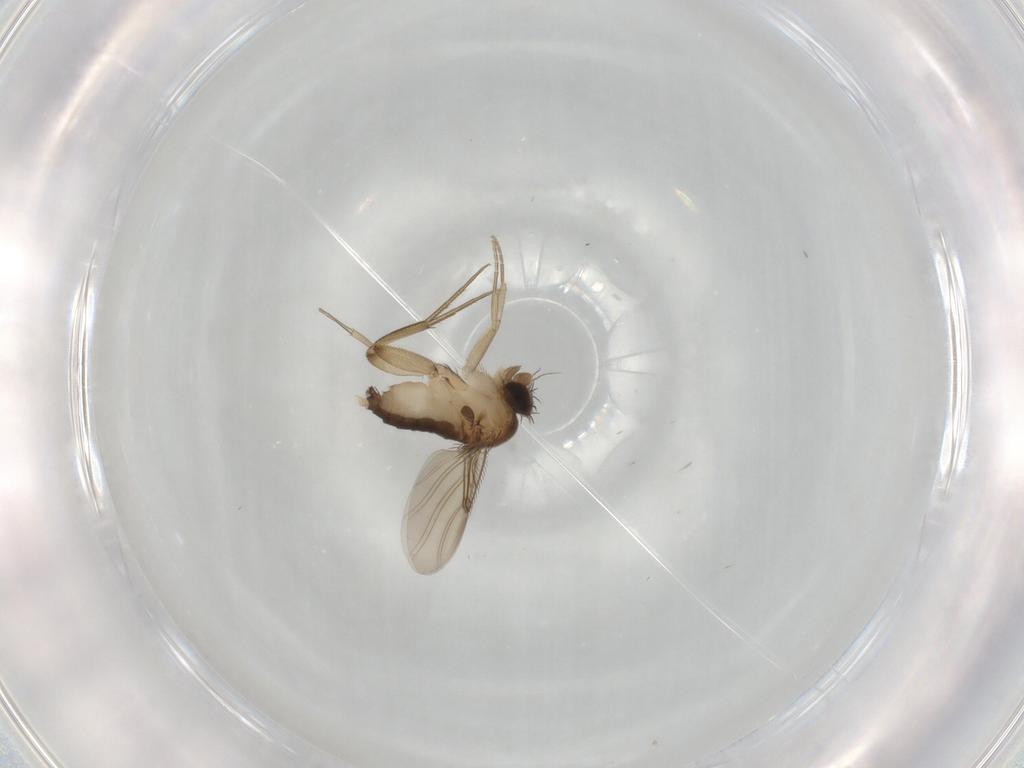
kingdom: Animalia
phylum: Arthropoda
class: Insecta
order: Diptera
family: Phoridae
